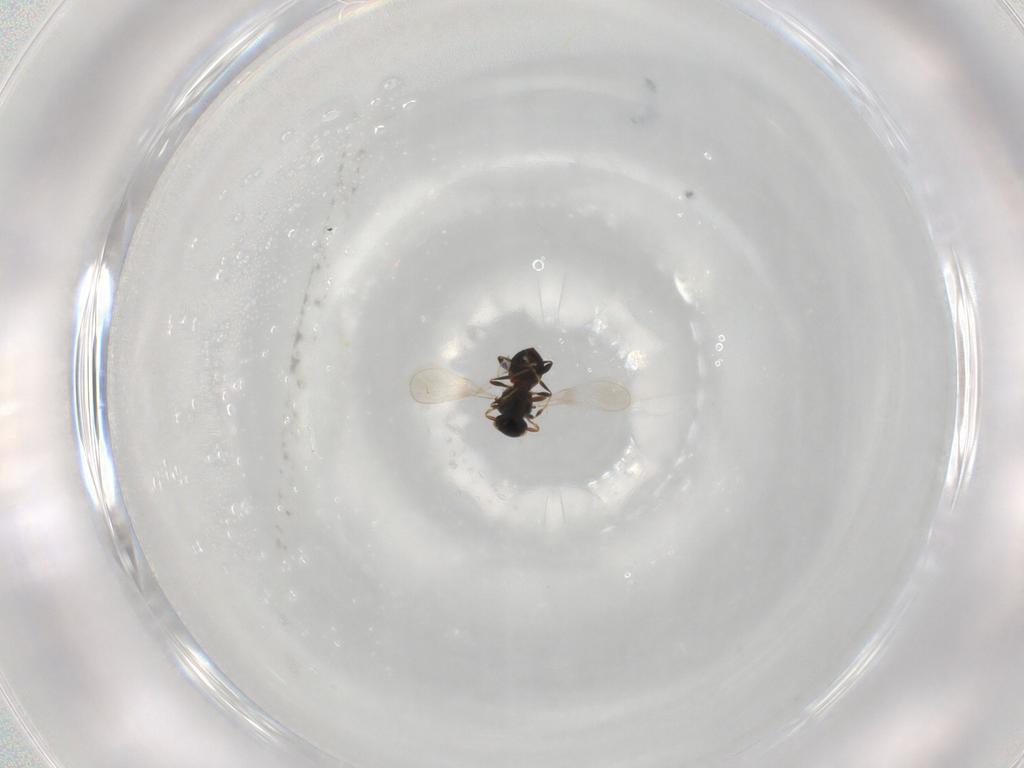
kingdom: Animalia
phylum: Arthropoda
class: Insecta
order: Hymenoptera
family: Platygastridae
